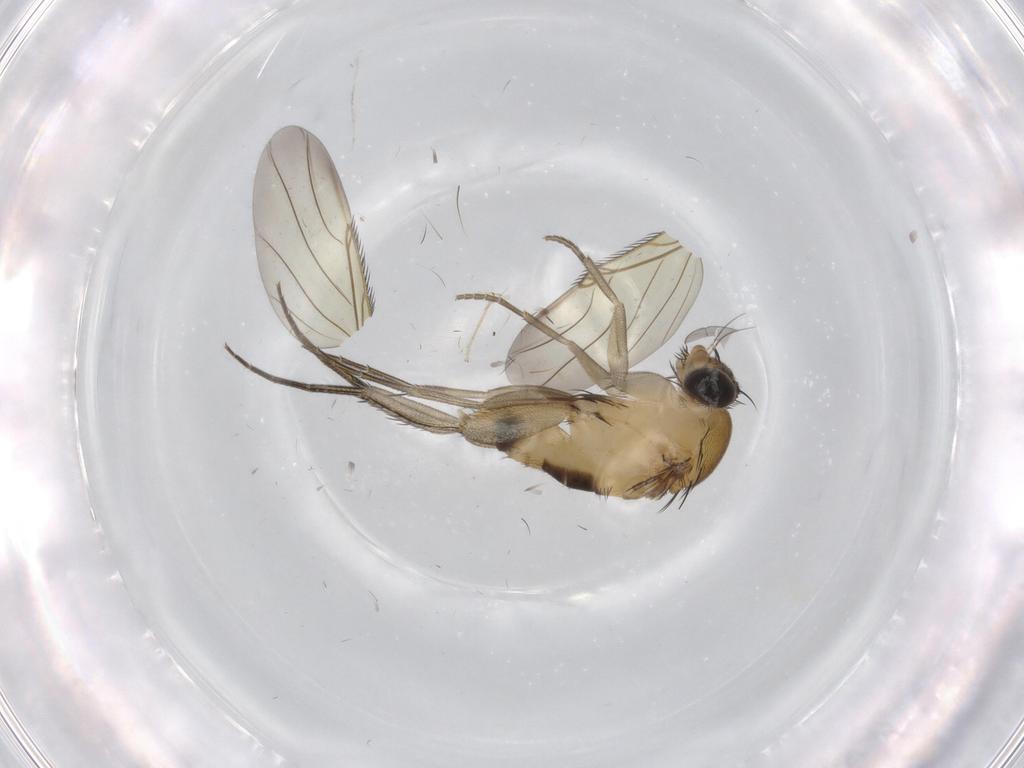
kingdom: Animalia
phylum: Arthropoda
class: Insecta
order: Diptera
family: Phoridae
